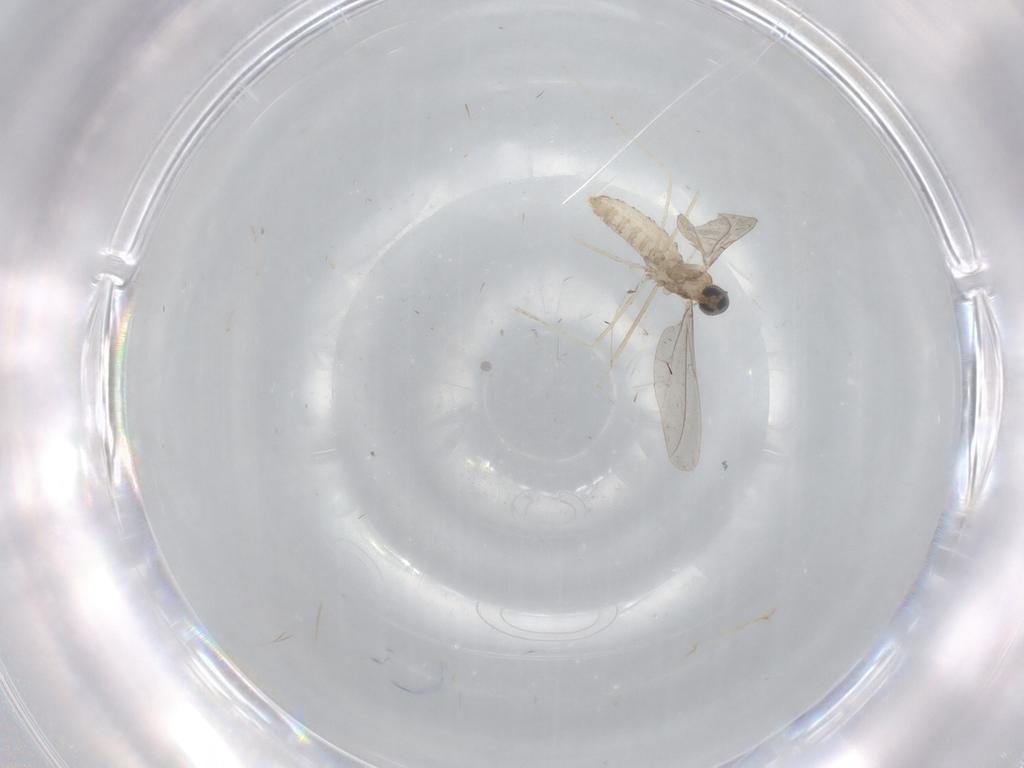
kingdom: Animalia
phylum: Arthropoda
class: Insecta
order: Diptera
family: Cecidomyiidae
